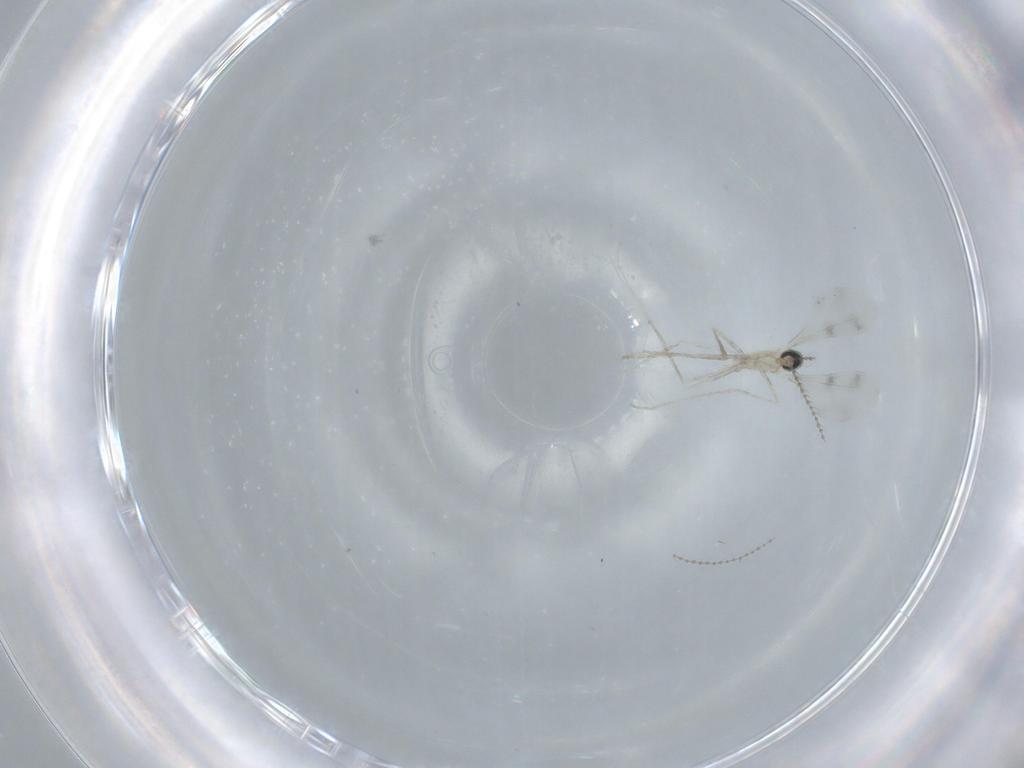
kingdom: Animalia
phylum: Arthropoda
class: Insecta
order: Diptera
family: Cecidomyiidae
